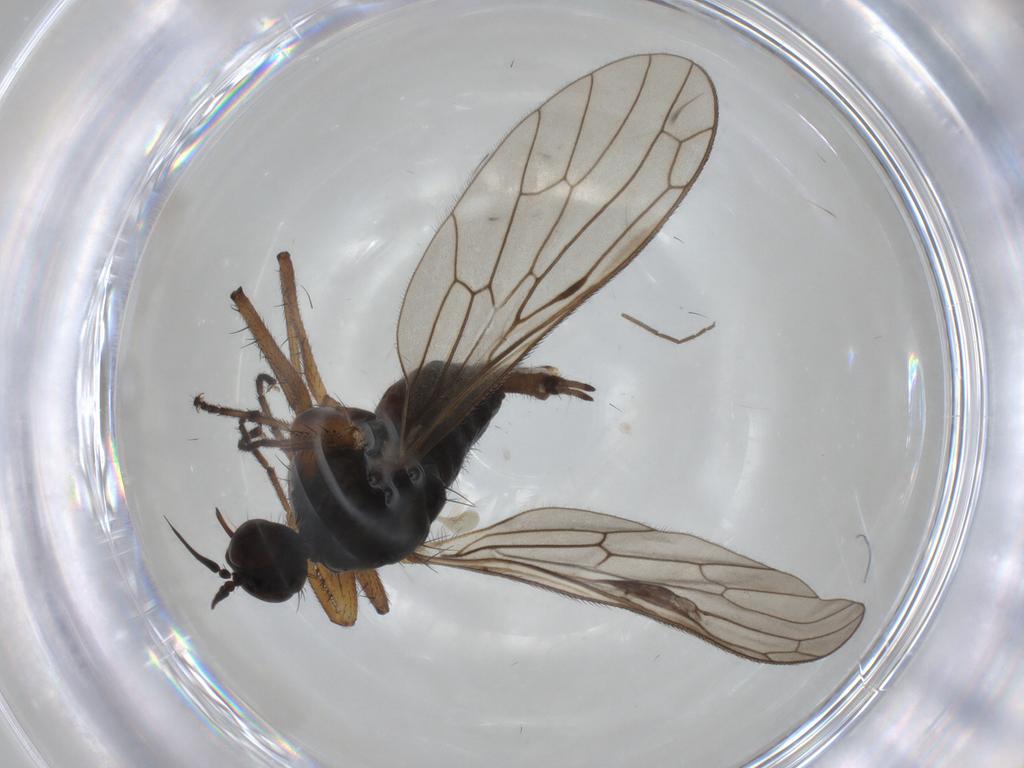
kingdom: Animalia
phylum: Arthropoda
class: Insecta
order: Diptera
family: Empididae
